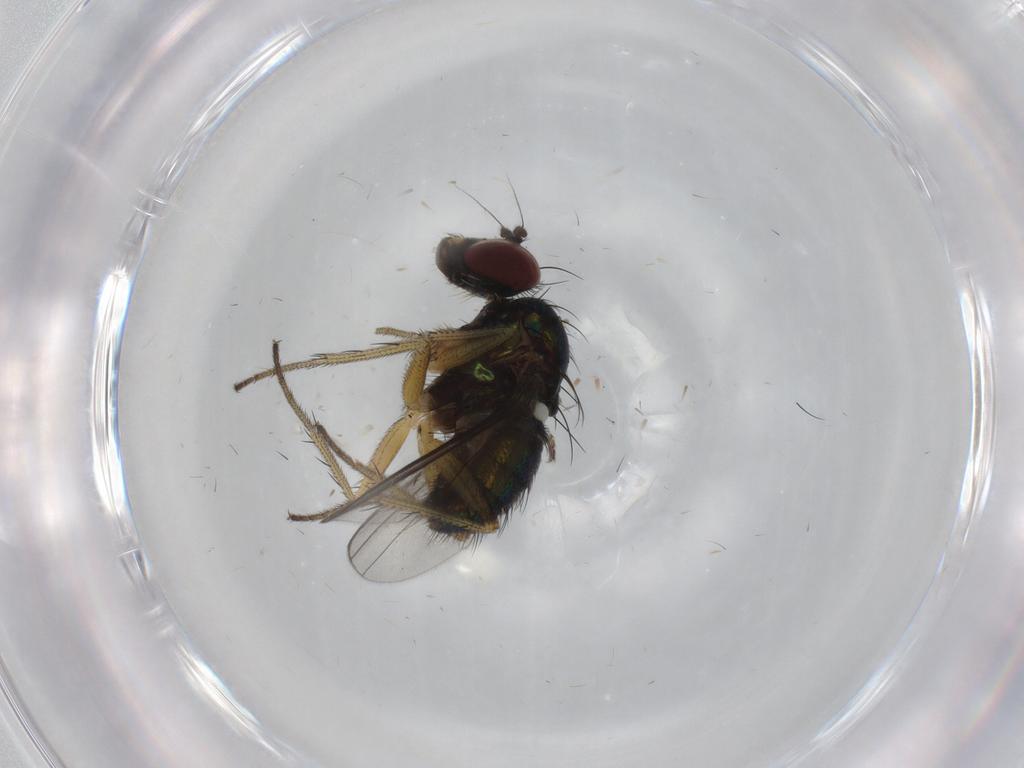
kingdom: Animalia
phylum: Arthropoda
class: Insecta
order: Diptera
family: Dolichopodidae
